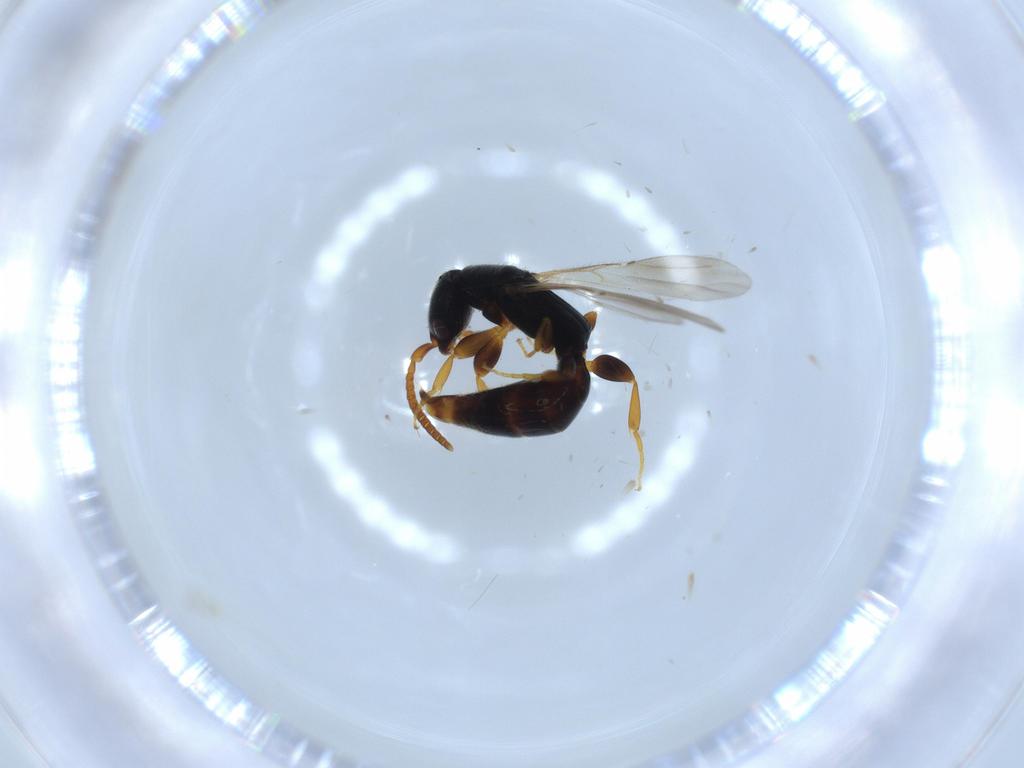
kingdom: Animalia
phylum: Arthropoda
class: Insecta
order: Hymenoptera
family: Bethylidae
